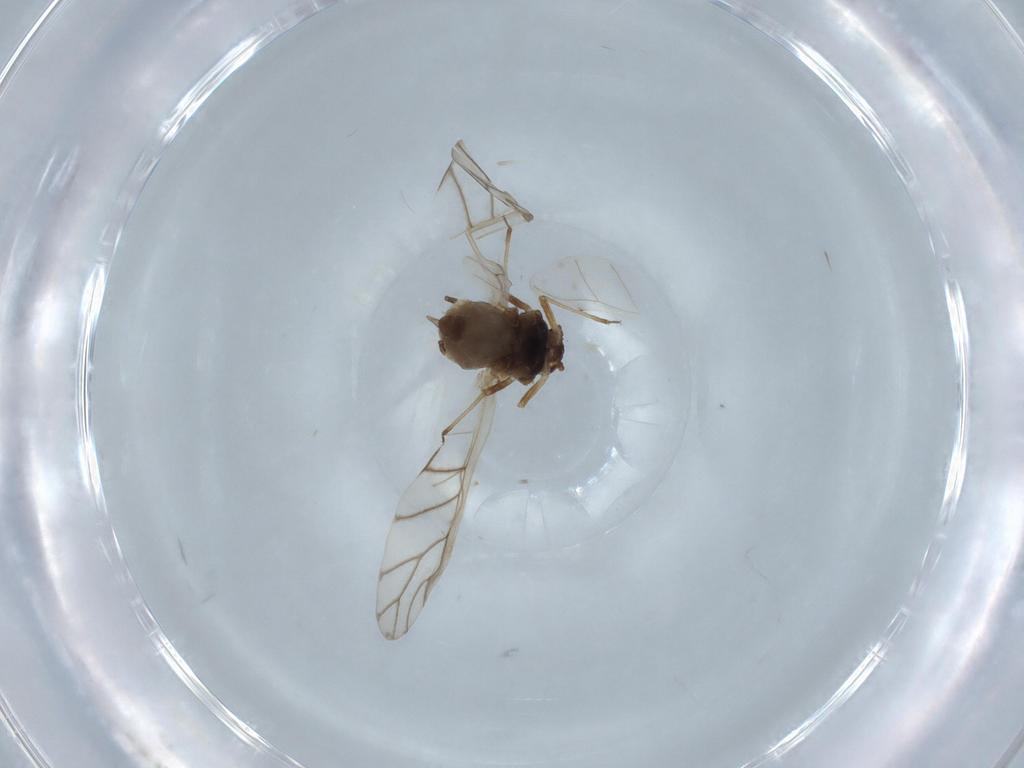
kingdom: Animalia
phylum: Arthropoda
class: Insecta
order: Hemiptera
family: Aphididae
